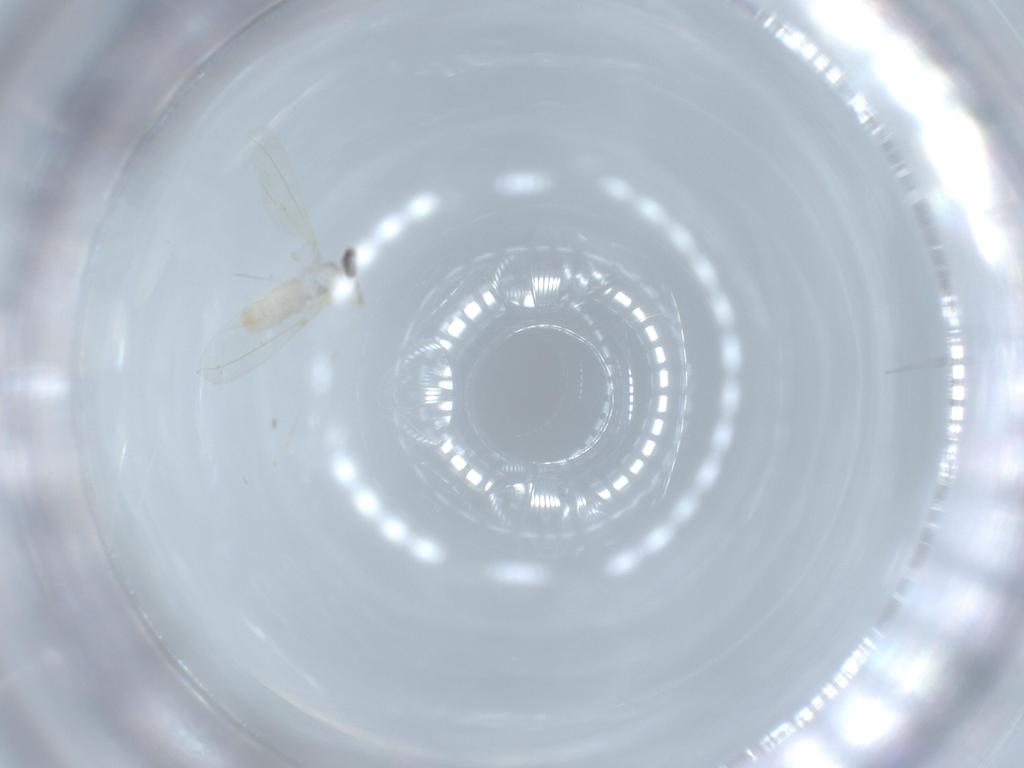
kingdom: Animalia
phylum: Arthropoda
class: Insecta
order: Diptera
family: Cecidomyiidae
